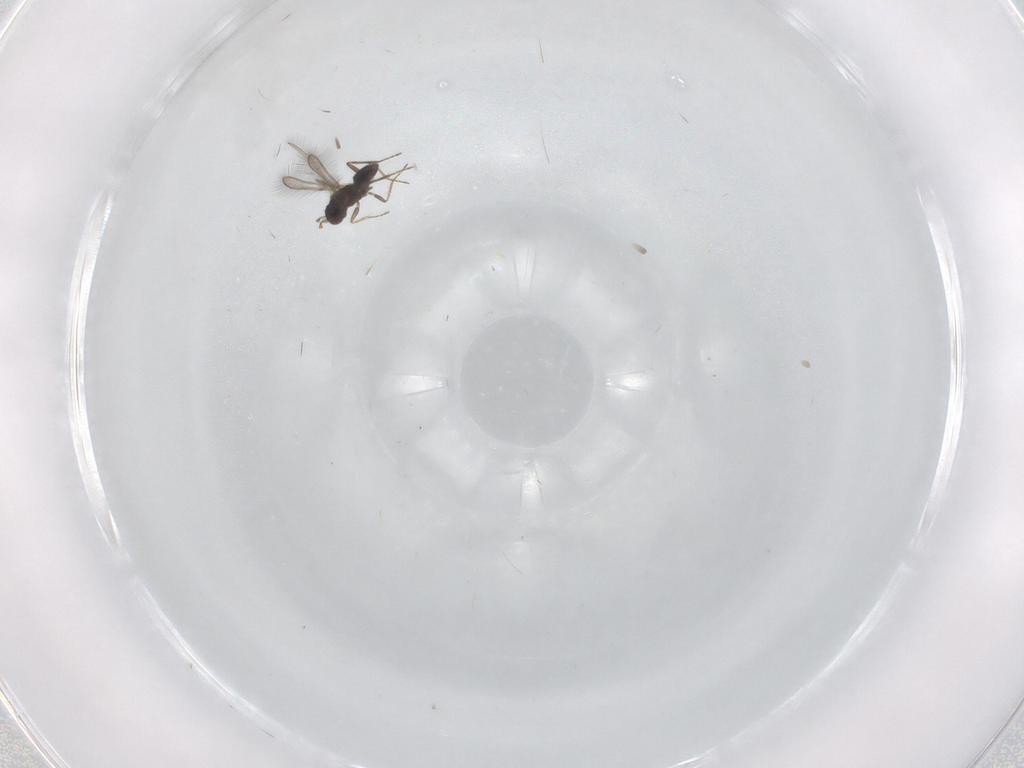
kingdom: Animalia
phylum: Arthropoda
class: Insecta
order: Hymenoptera
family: Mymaridae
